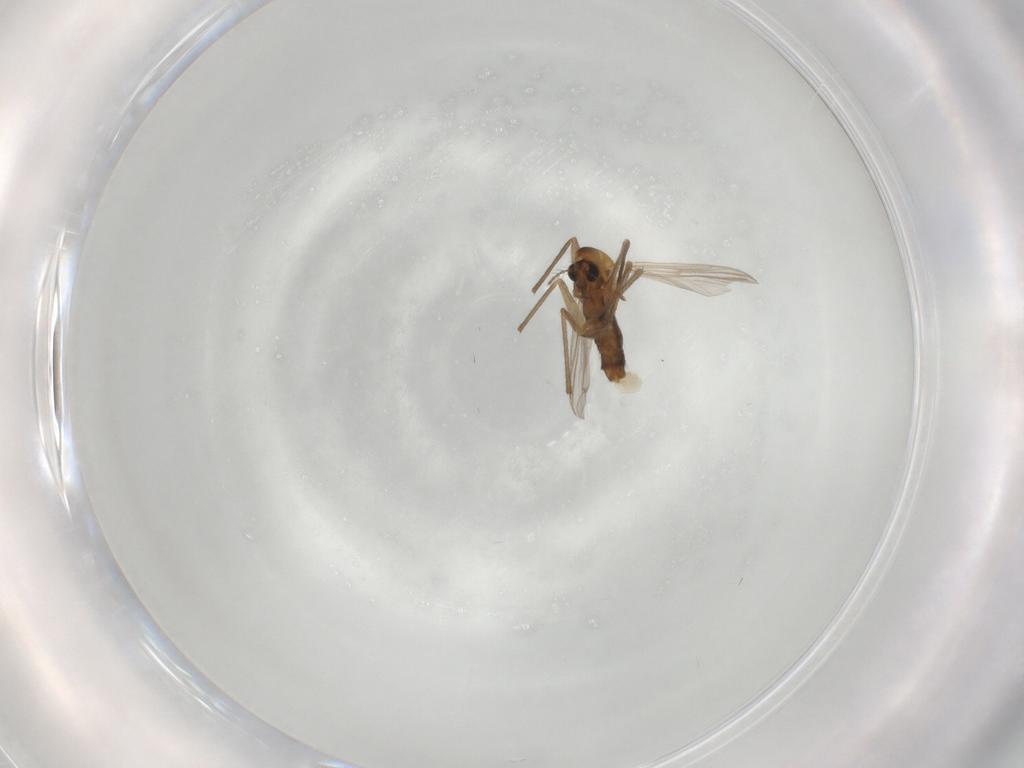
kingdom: Animalia
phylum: Arthropoda
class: Insecta
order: Diptera
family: Chironomidae
